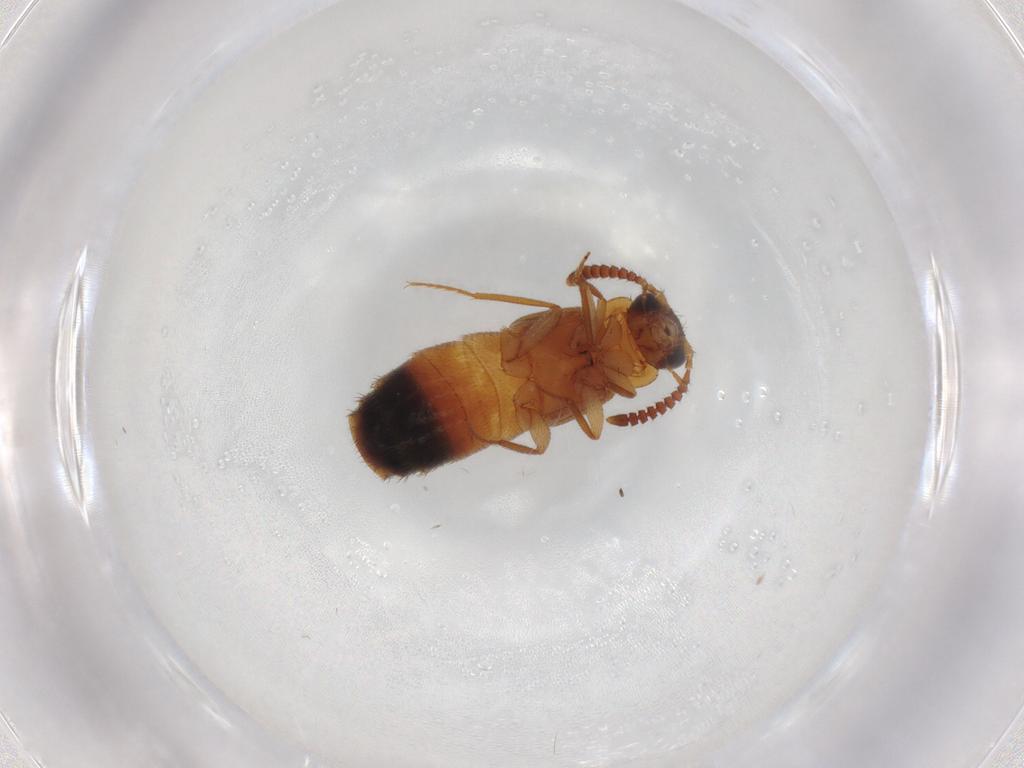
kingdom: Animalia
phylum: Arthropoda
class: Insecta
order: Coleoptera
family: Staphylinidae
